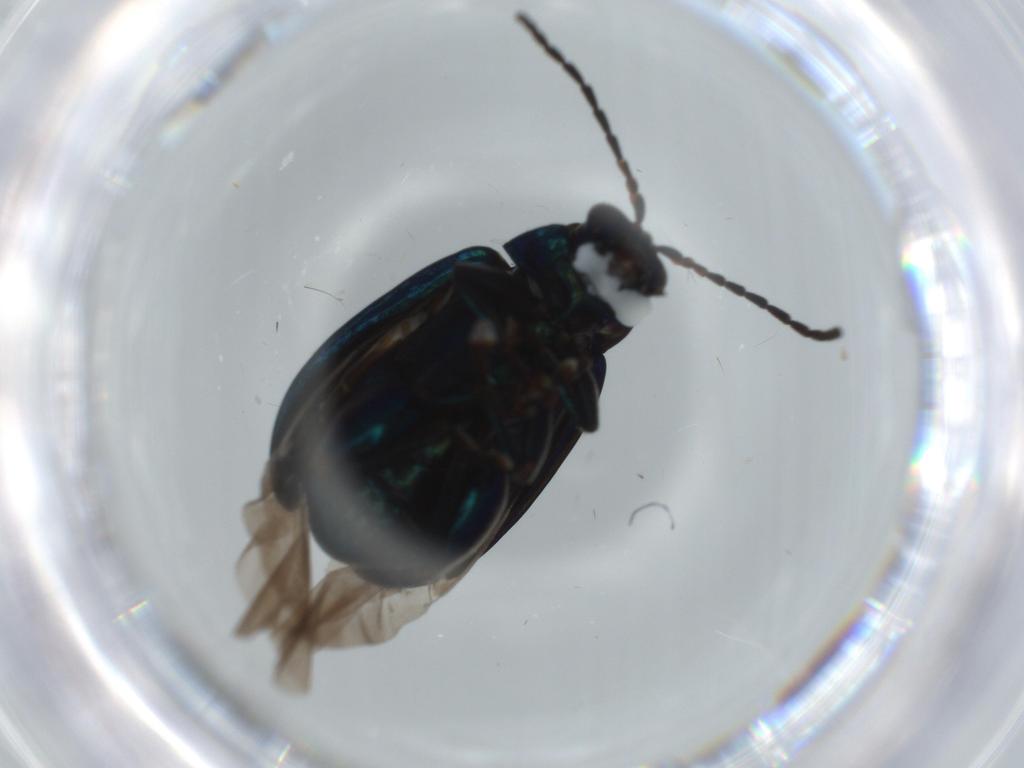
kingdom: Animalia
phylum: Arthropoda
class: Insecta
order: Coleoptera
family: Chrysomelidae
